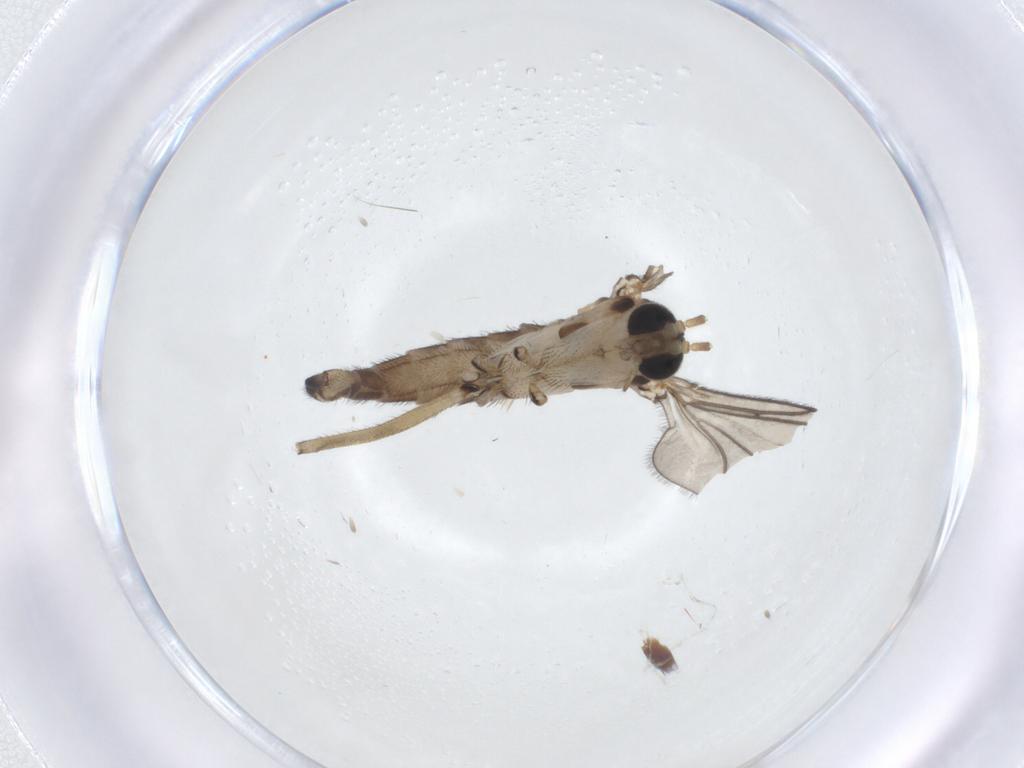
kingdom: Animalia
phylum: Arthropoda
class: Insecta
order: Diptera
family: Sciaridae
